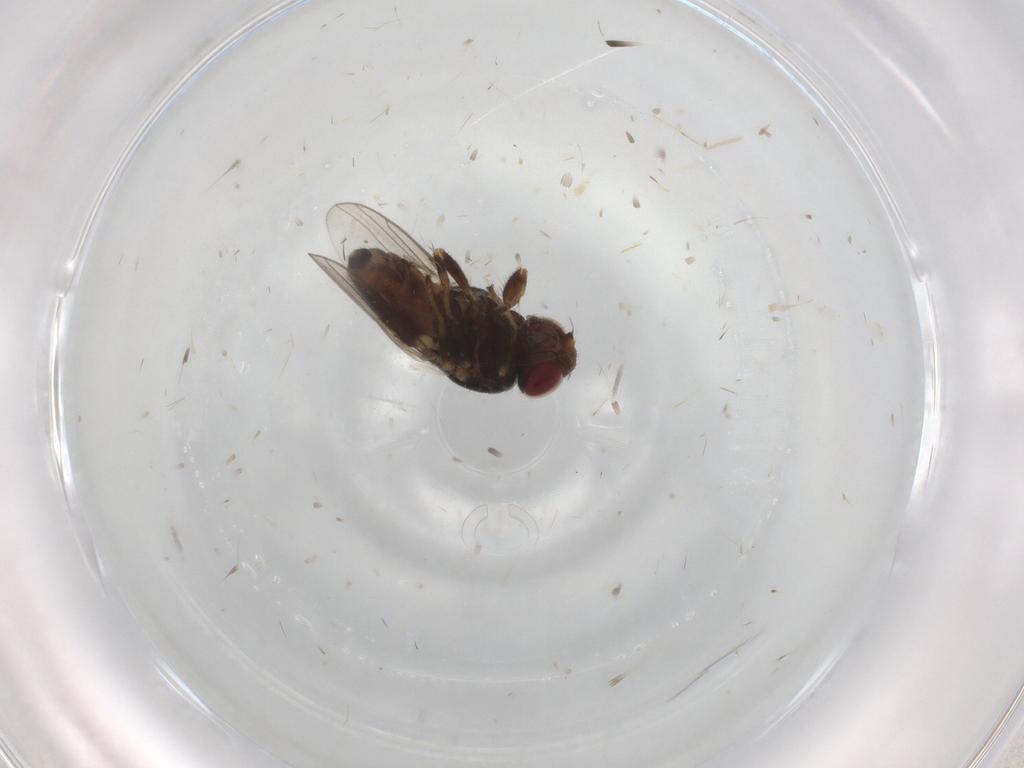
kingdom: Animalia
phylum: Arthropoda
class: Insecta
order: Diptera
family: Chloropidae
